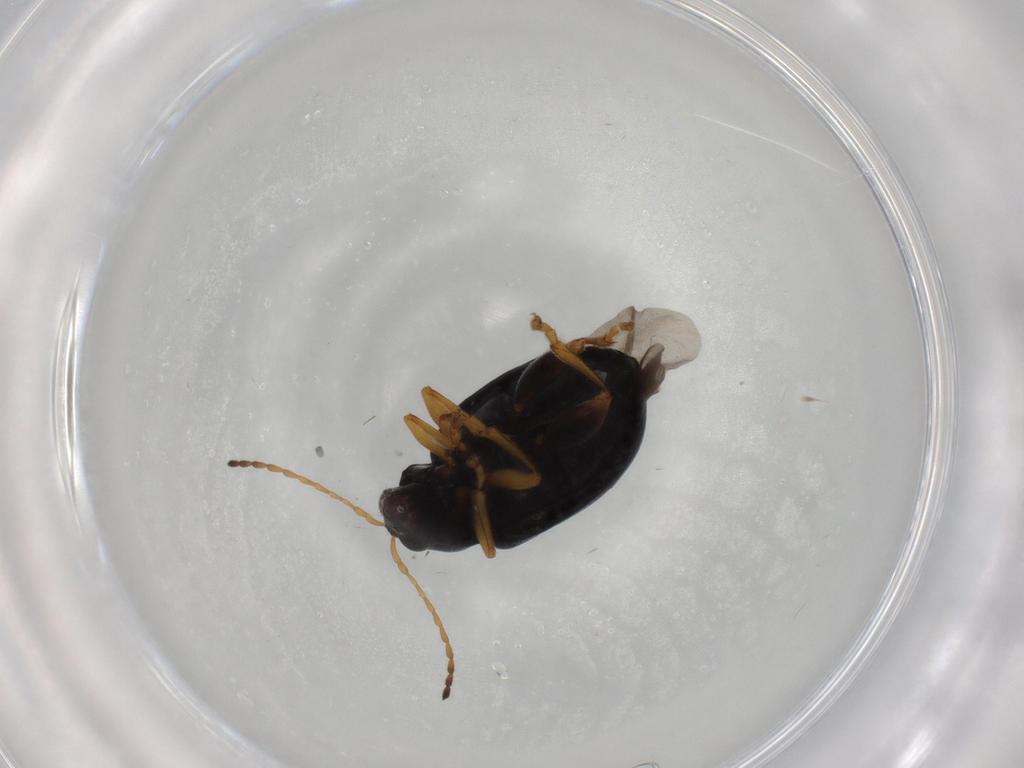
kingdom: Animalia
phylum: Arthropoda
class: Insecta
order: Coleoptera
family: Chrysomelidae
